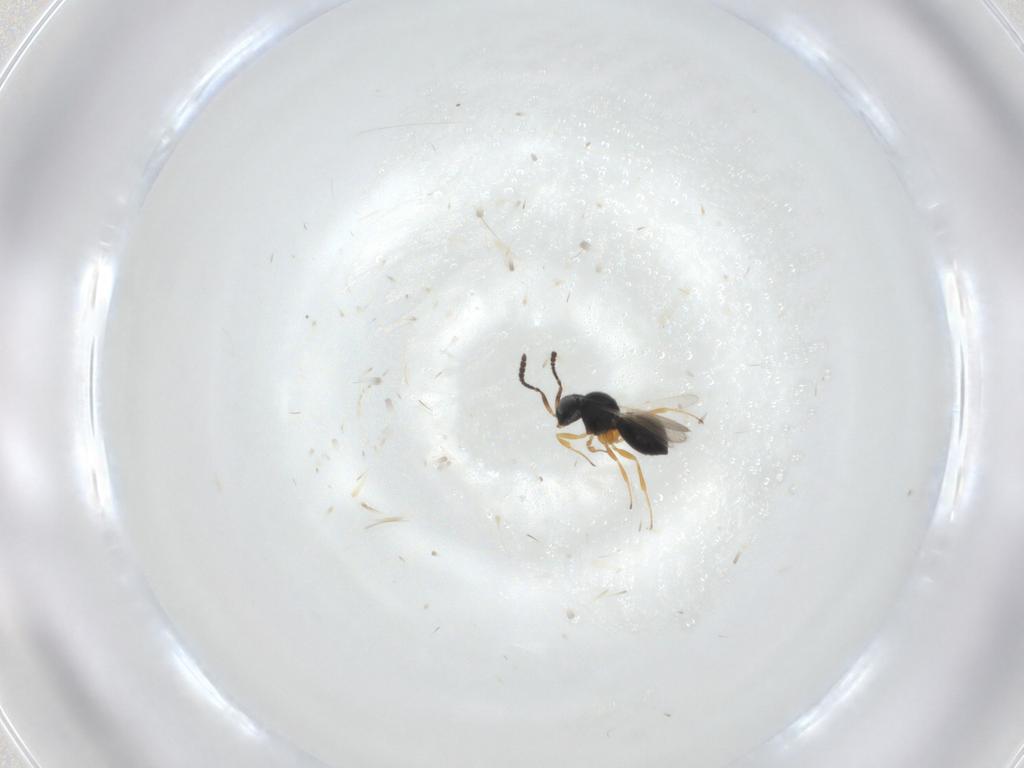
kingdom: Animalia
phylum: Arthropoda
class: Insecta
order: Hymenoptera
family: Scelionidae
